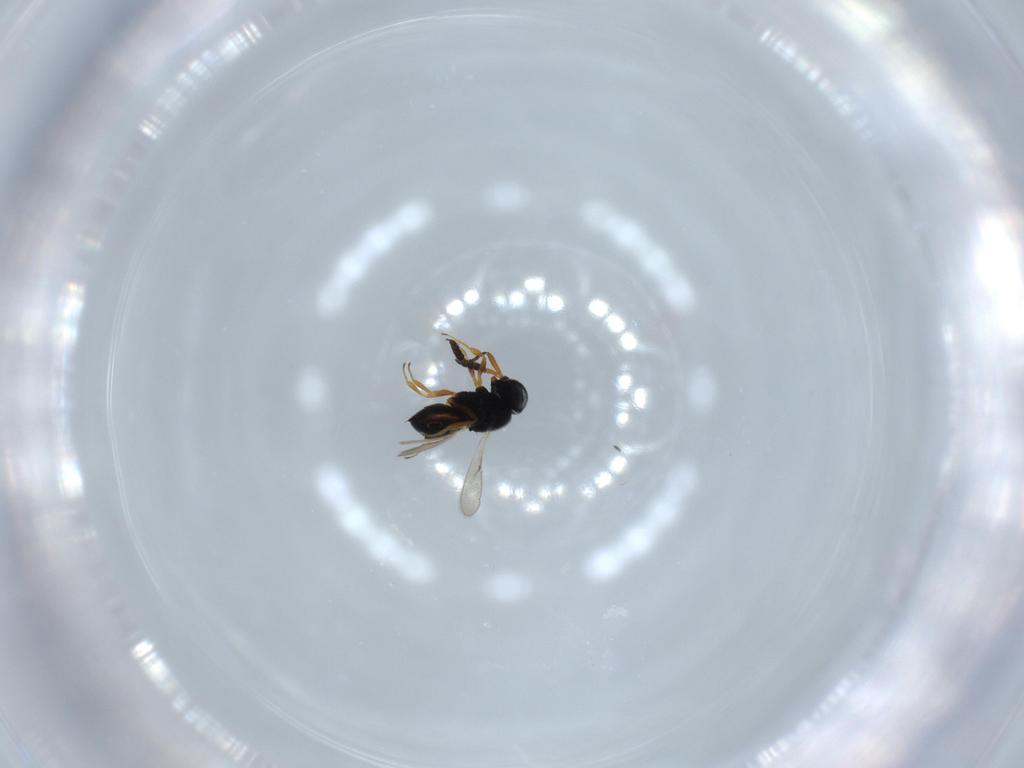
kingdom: Animalia
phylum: Arthropoda
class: Insecta
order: Hymenoptera
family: Scelionidae
